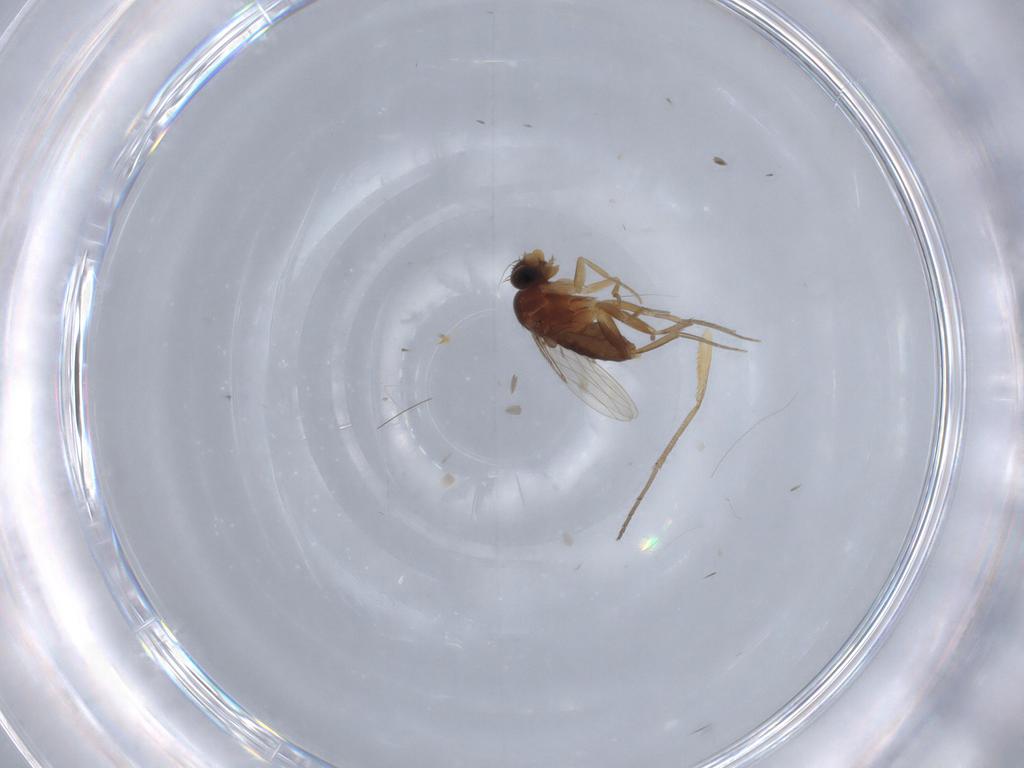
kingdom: Animalia
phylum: Arthropoda
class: Insecta
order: Diptera
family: Phoridae
